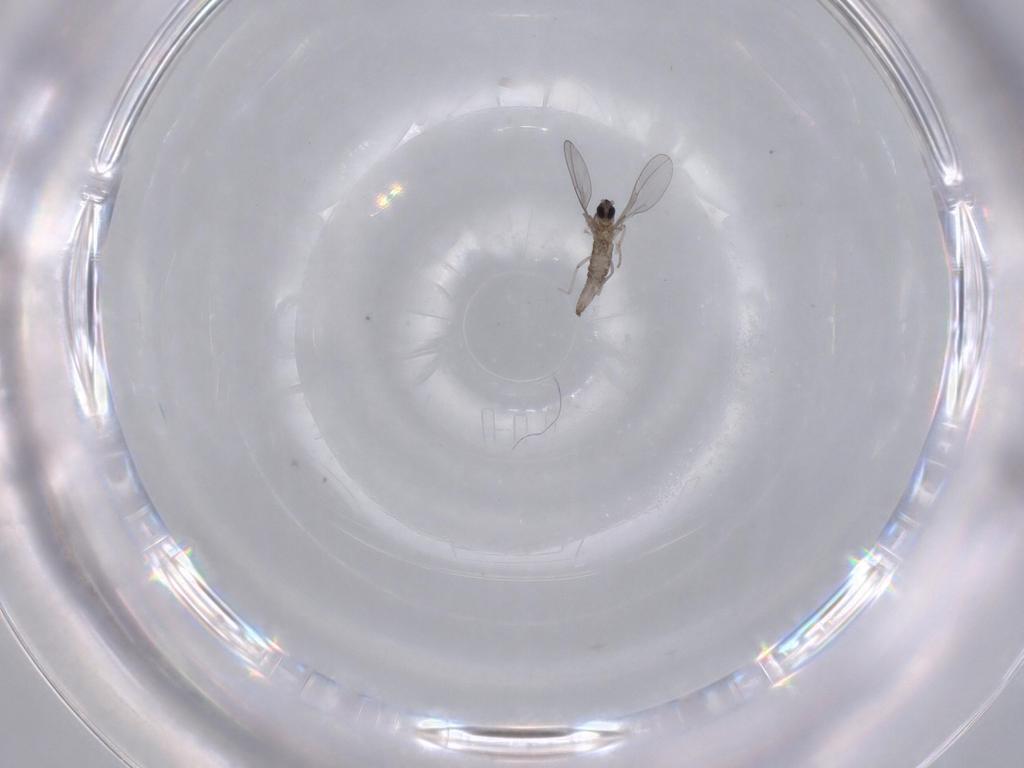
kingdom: Animalia
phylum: Arthropoda
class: Insecta
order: Diptera
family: Cecidomyiidae
